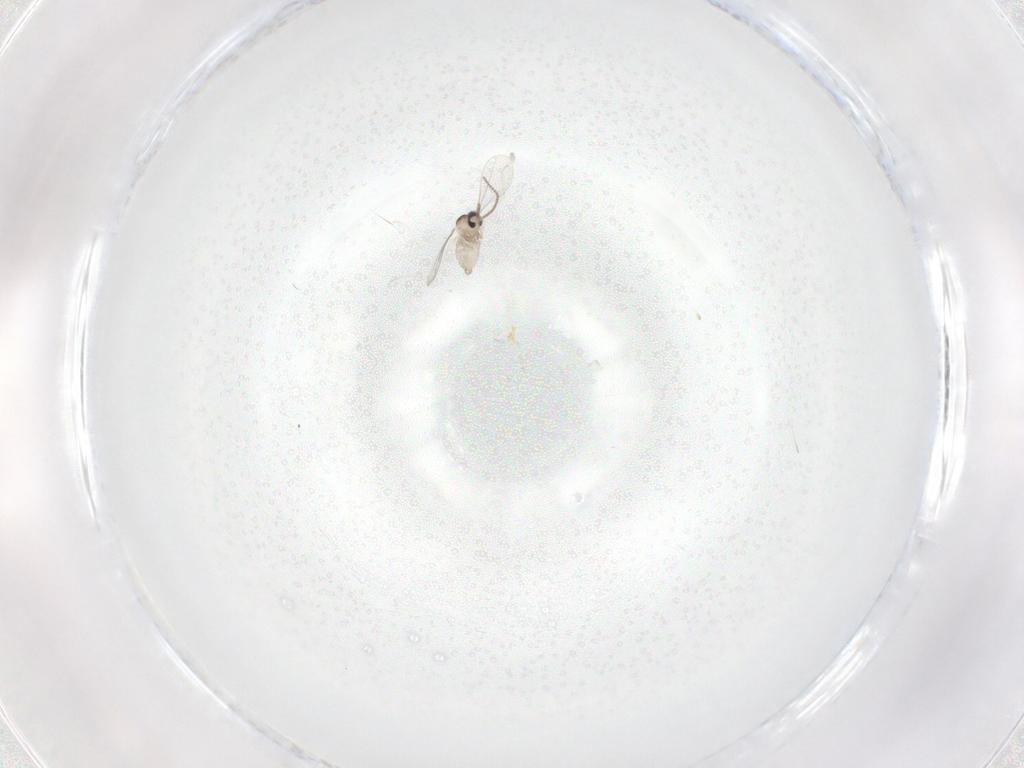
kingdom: Animalia
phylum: Arthropoda
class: Insecta
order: Diptera
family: Cecidomyiidae
